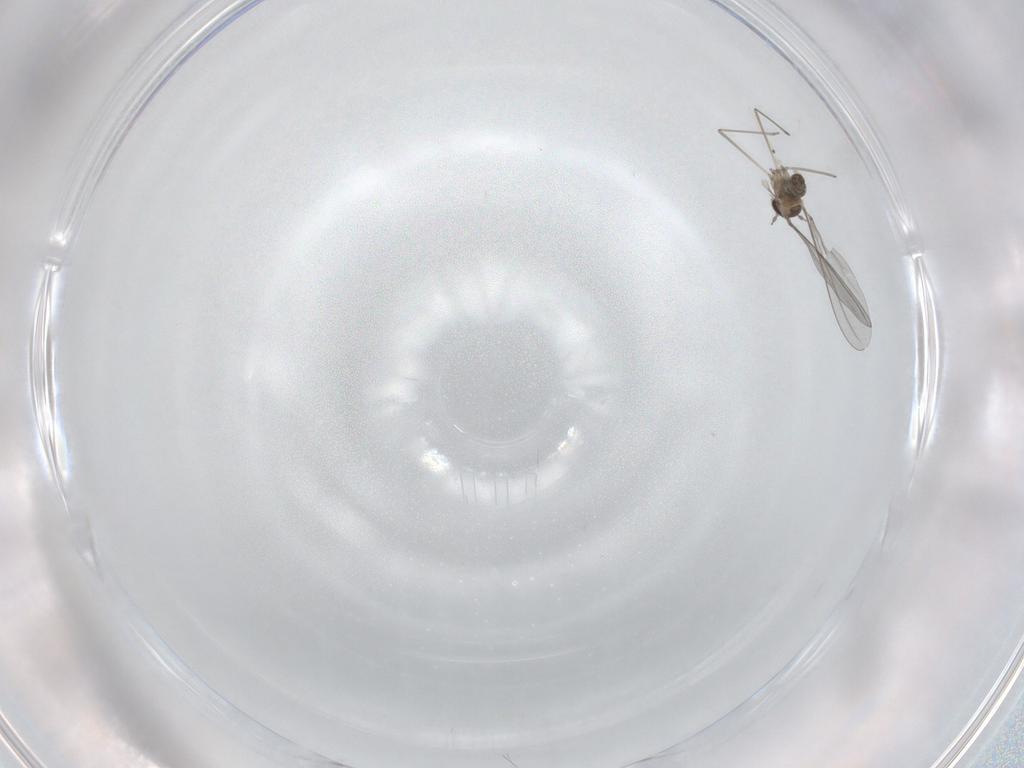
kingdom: Animalia
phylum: Arthropoda
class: Insecta
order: Diptera
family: Cecidomyiidae
